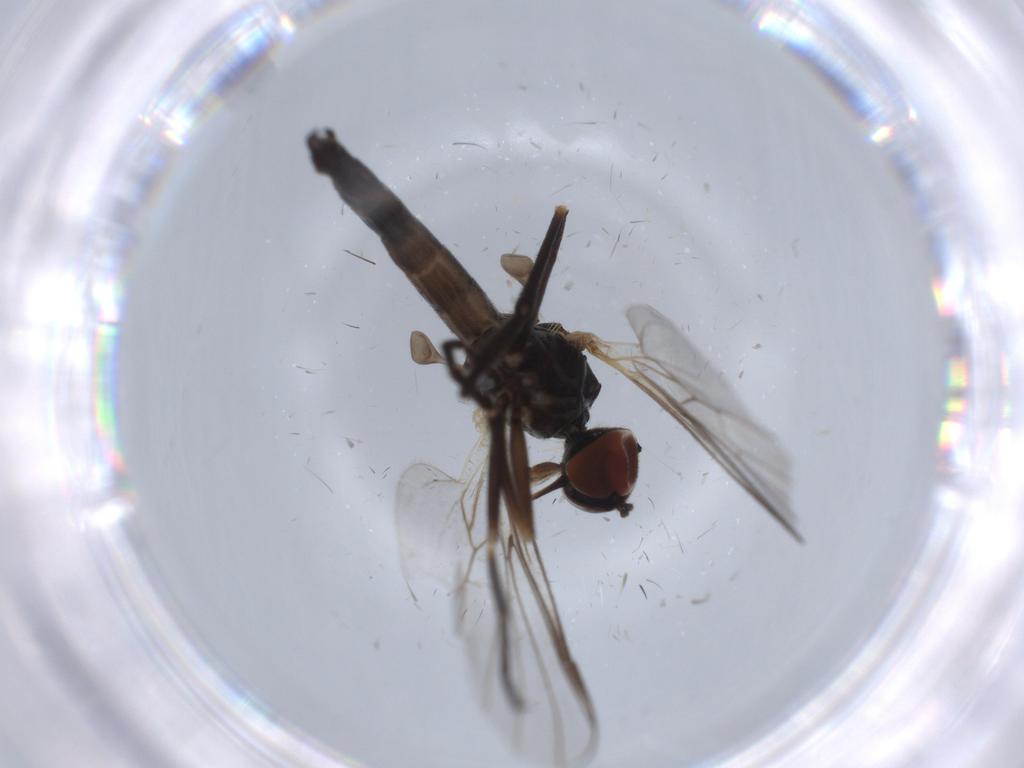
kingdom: Animalia
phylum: Arthropoda
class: Insecta
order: Diptera
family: Empididae
